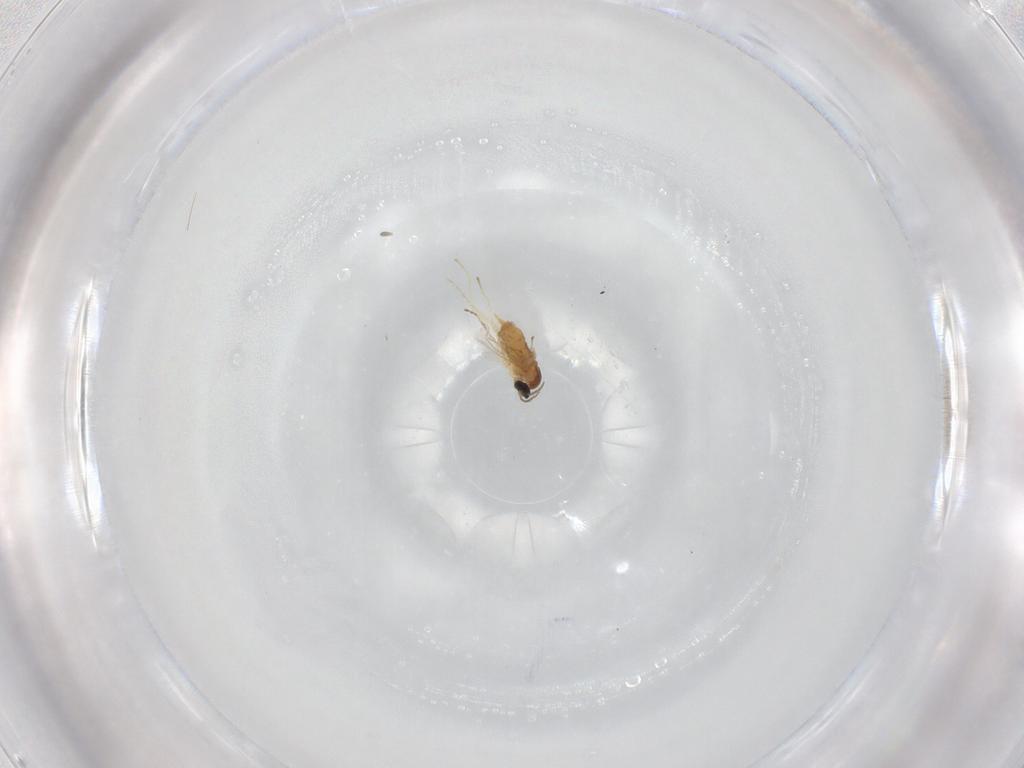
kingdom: Animalia
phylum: Arthropoda
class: Insecta
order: Diptera
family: Cecidomyiidae
